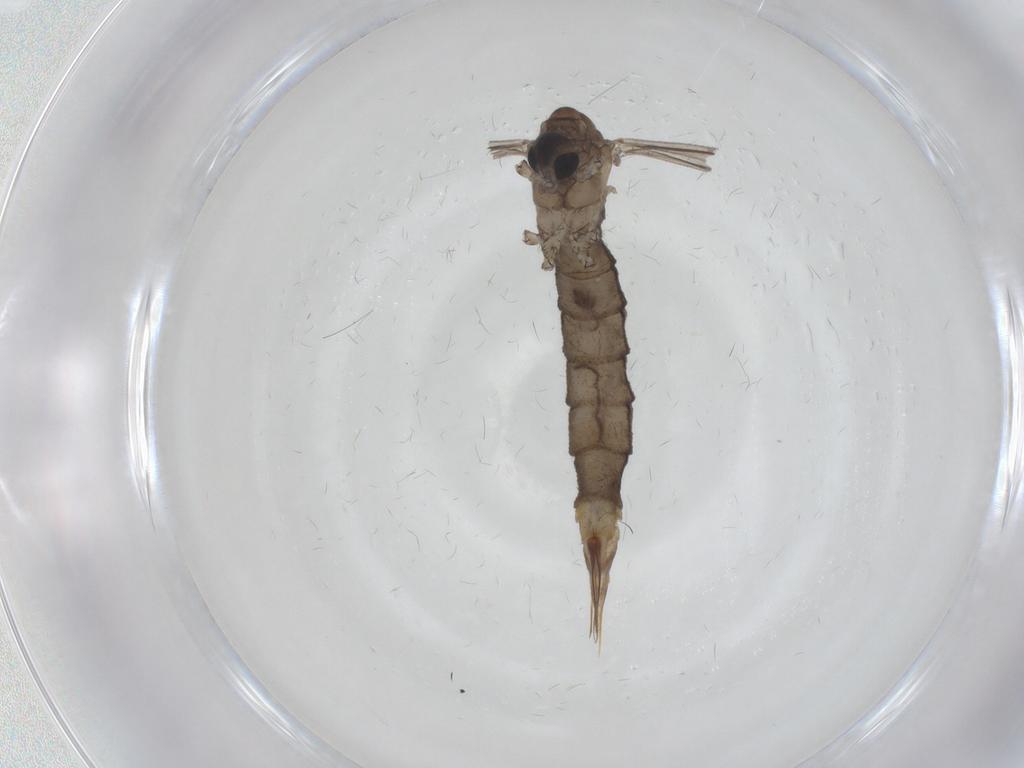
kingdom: Animalia
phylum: Arthropoda
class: Insecta
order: Diptera
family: Limoniidae
